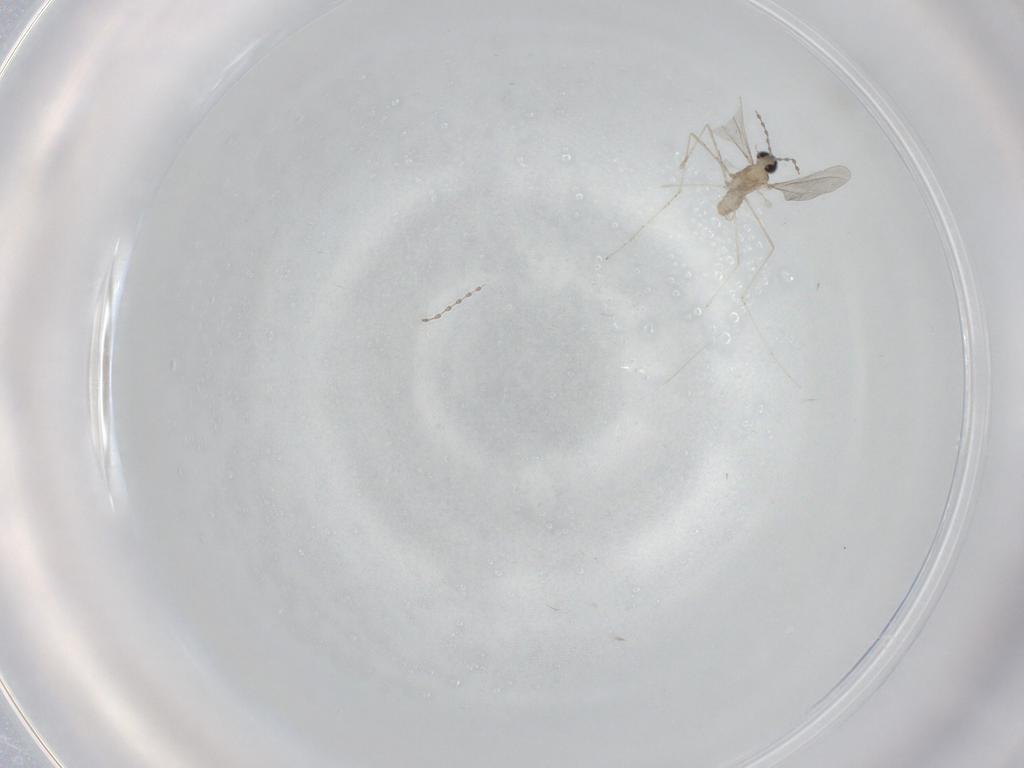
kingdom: Animalia
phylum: Arthropoda
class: Insecta
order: Diptera
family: Cecidomyiidae
